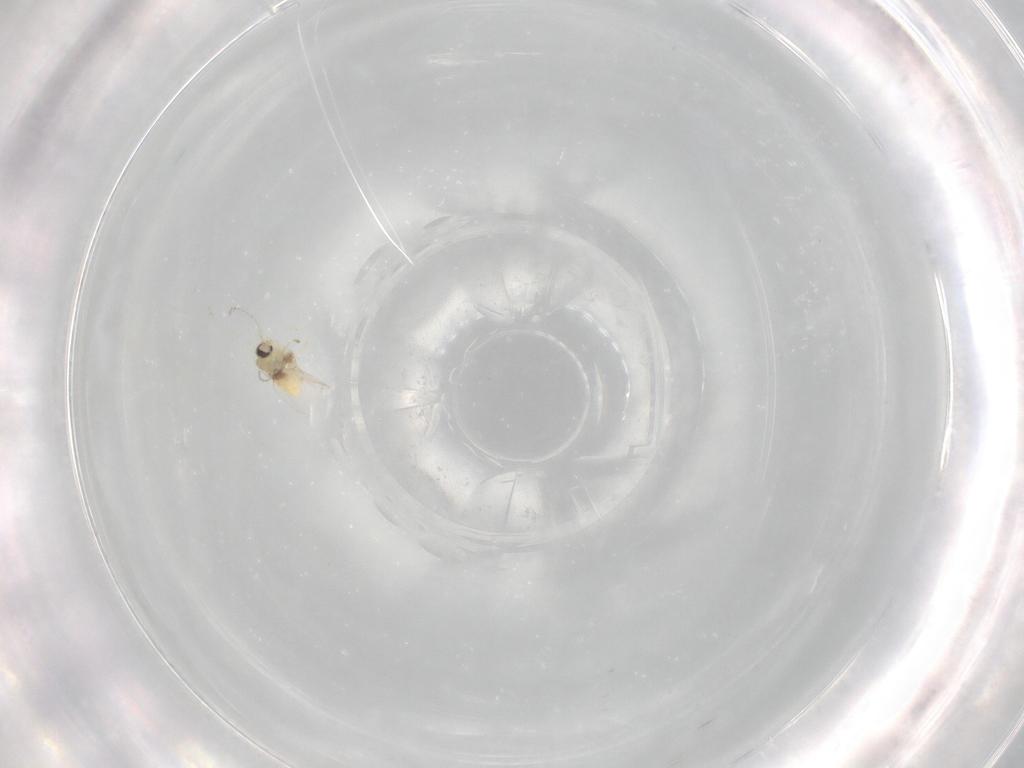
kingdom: Animalia
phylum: Arthropoda
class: Insecta
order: Diptera
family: Cecidomyiidae
